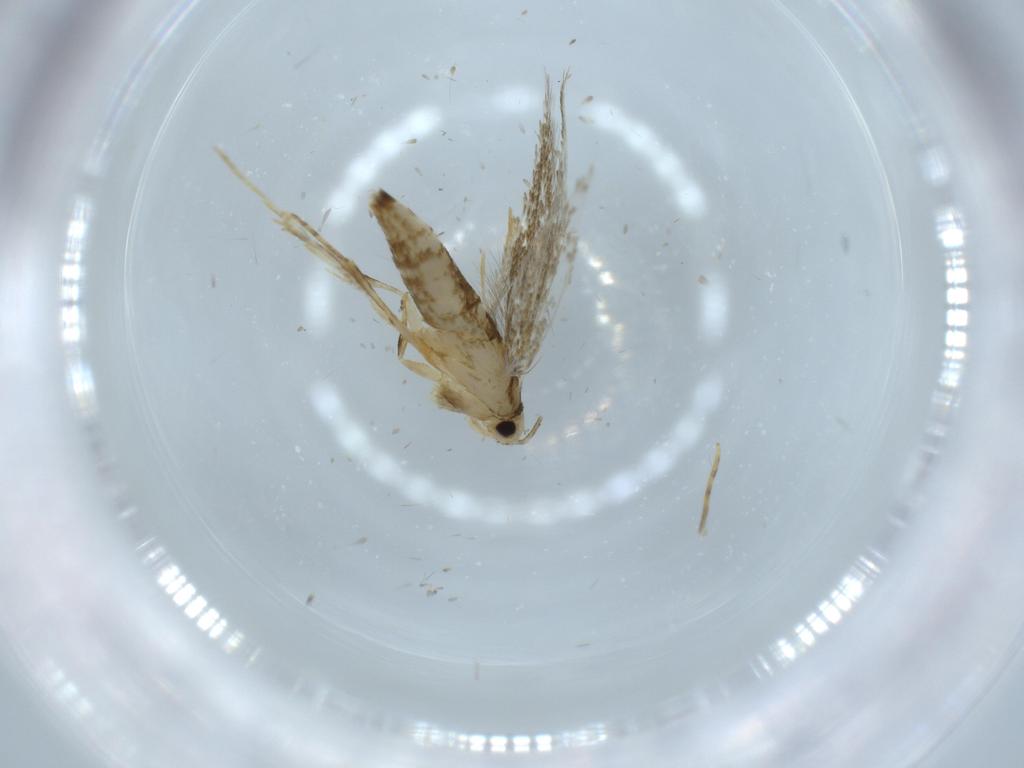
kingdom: Animalia
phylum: Arthropoda
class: Insecta
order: Lepidoptera
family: Tineidae
